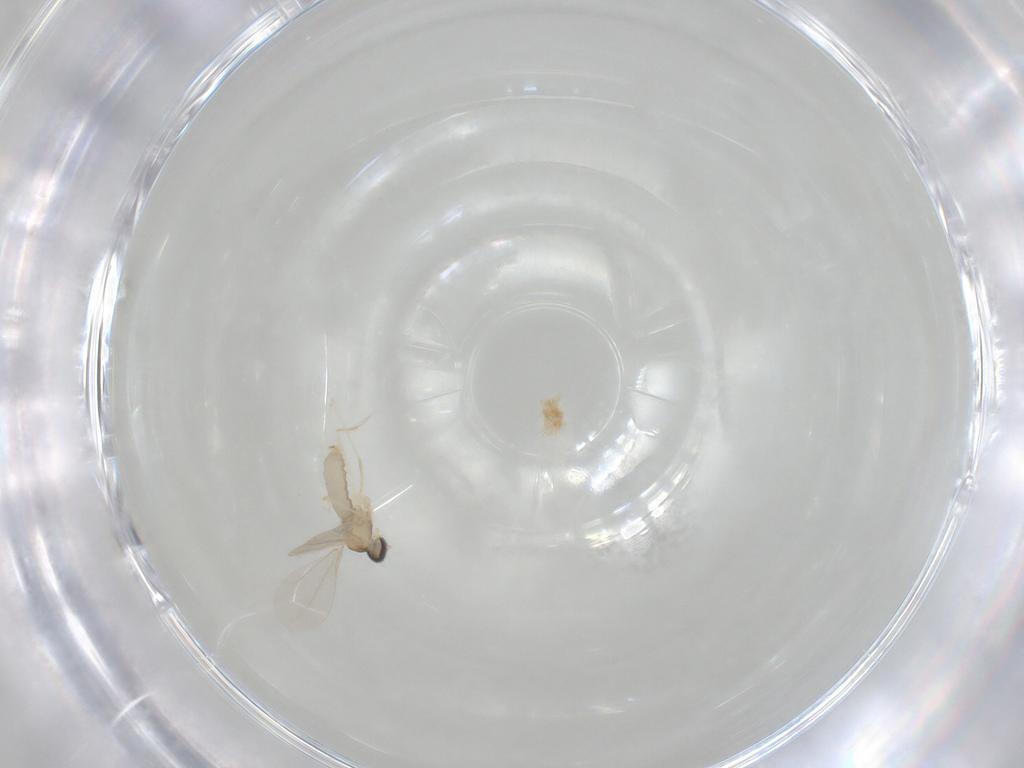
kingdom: Animalia
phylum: Arthropoda
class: Insecta
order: Diptera
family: Cecidomyiidae
